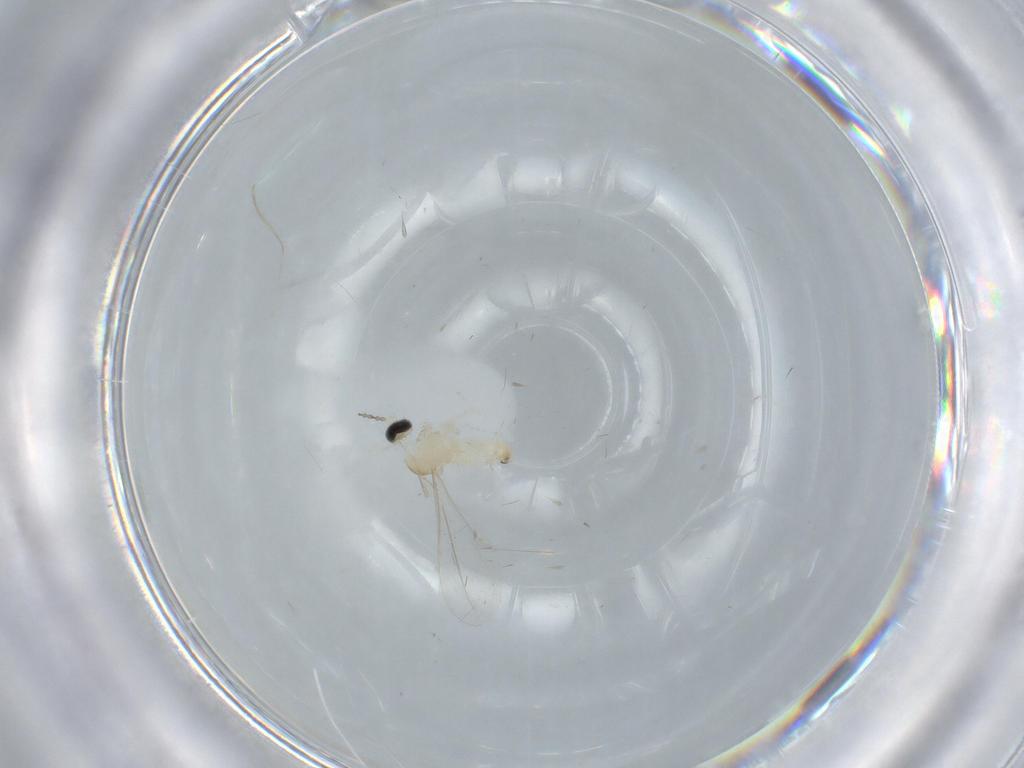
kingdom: Animalia
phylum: Arthropoda
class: Insecta
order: Diptera
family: Cecidomyiidae
